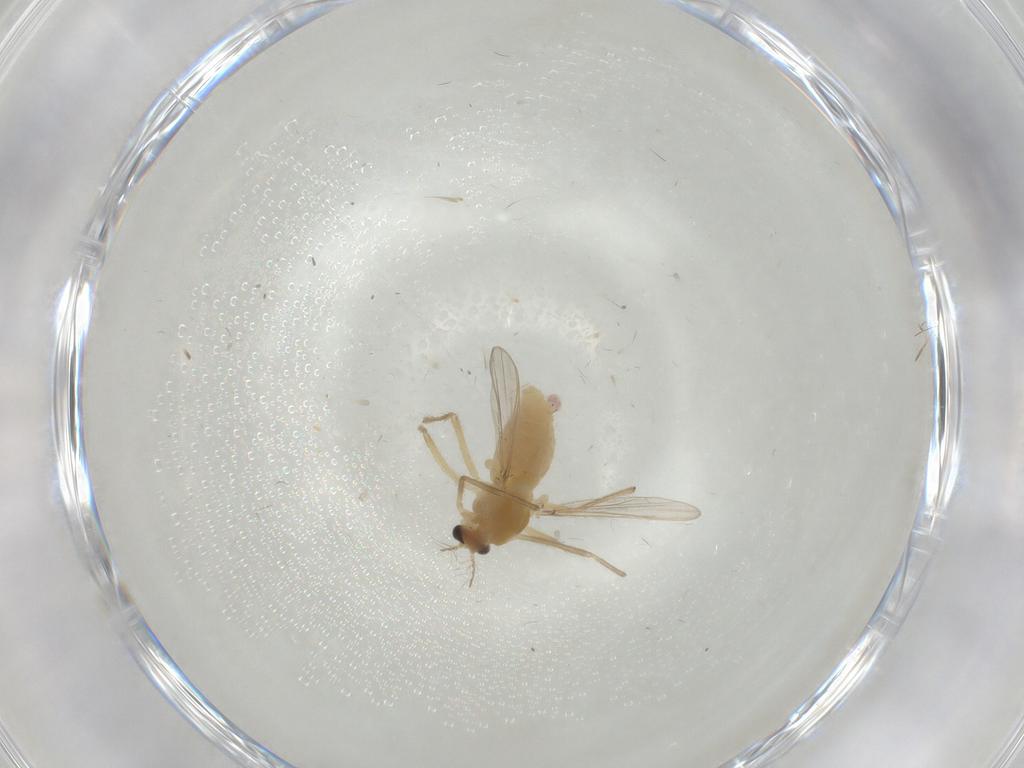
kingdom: Animalia
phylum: Arthropoda
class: Insecta
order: Diptera
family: Chironomidae
